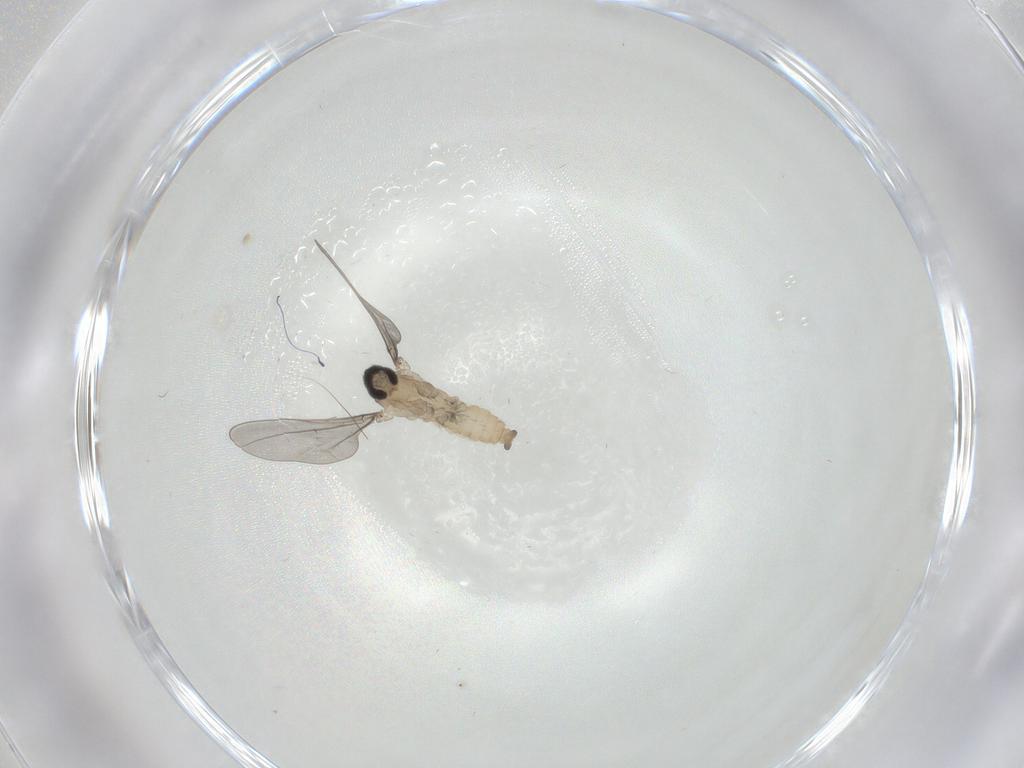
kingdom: Animalia
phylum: Arthropoda
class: Insecta
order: Diptera
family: Cecidomyiidae
